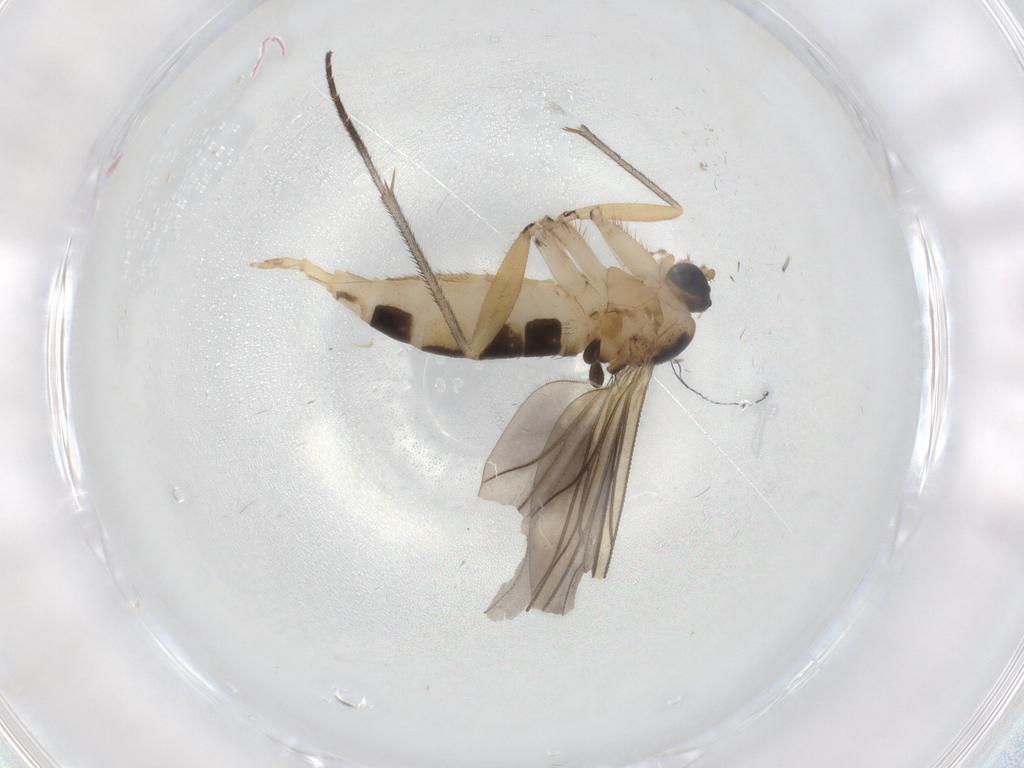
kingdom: Animalia
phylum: Arthropoda
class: Insecta
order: Diptera
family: Sciaridae
